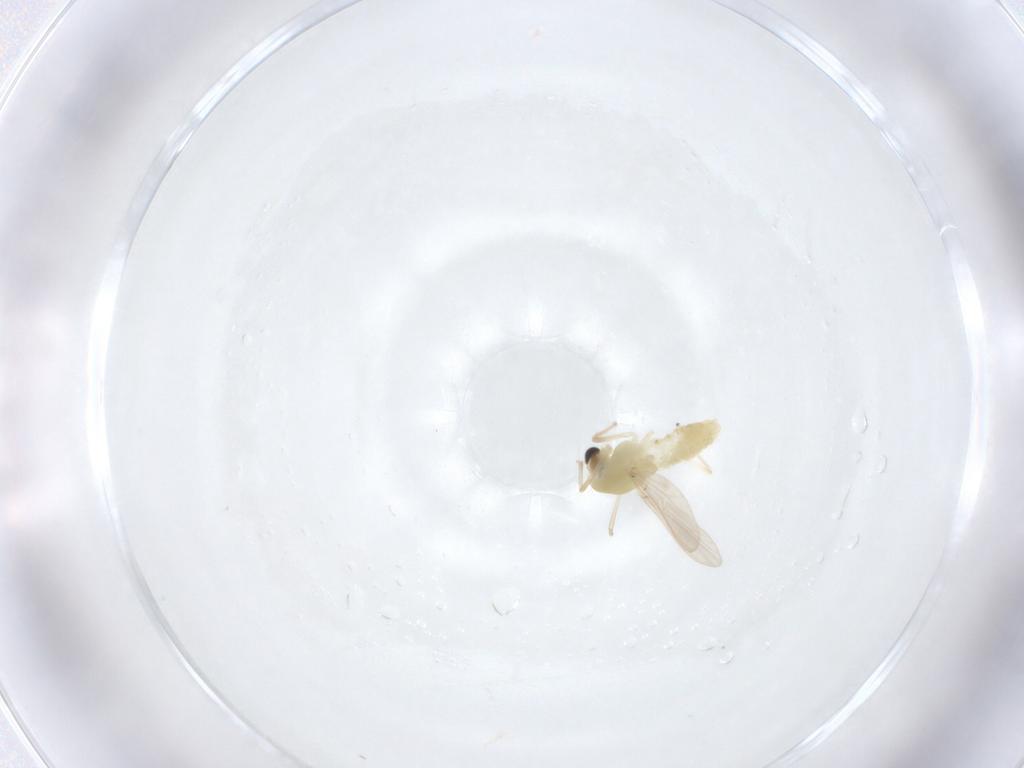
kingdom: Animalia
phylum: Arthropoda
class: Insecta
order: Diptera
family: Chironomidae
